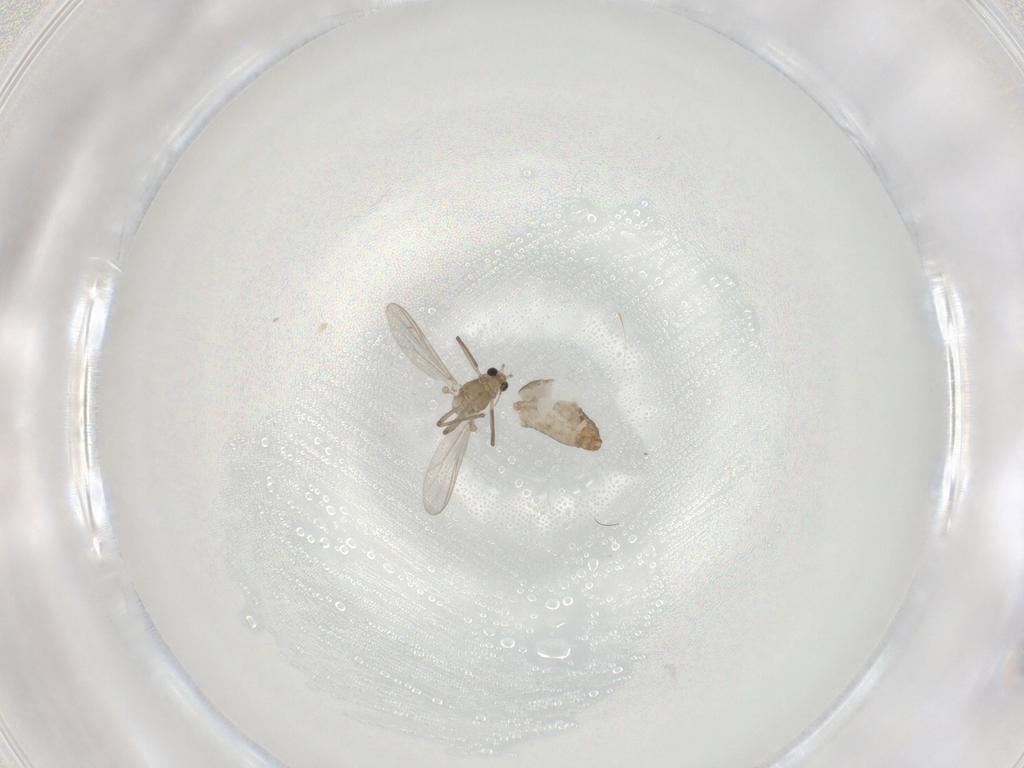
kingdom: Animalia
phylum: Arthropoda
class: Insecta
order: Diptera
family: Chironomidae
